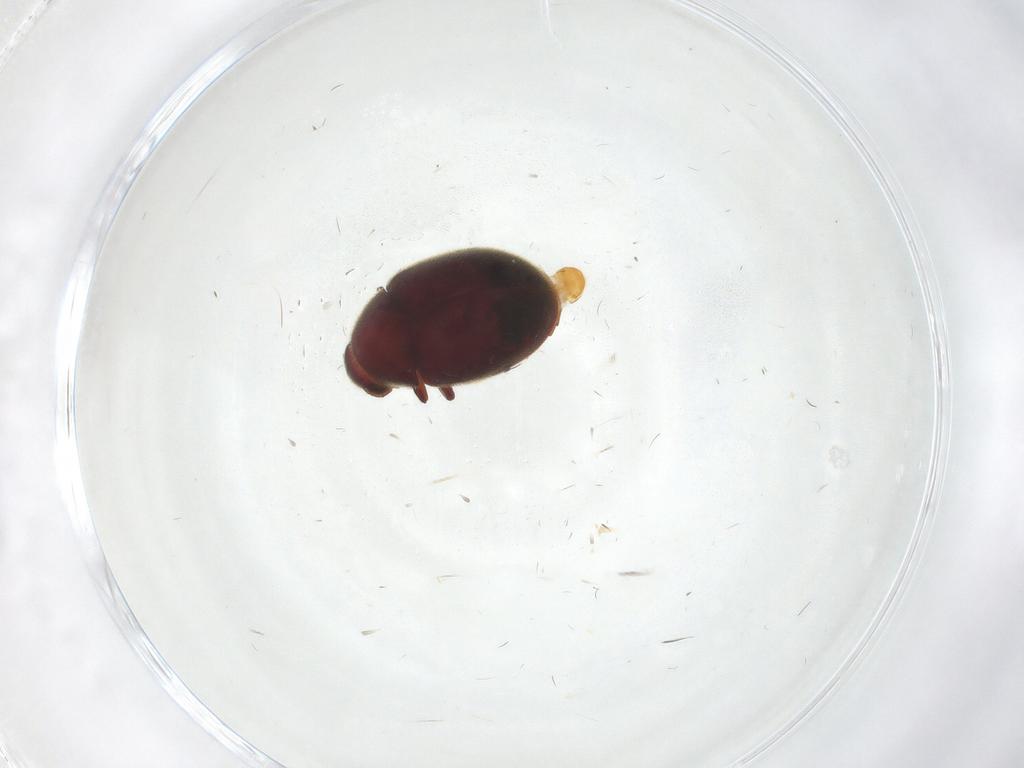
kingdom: Animalia
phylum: Arthropoda
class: Insecta
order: Coleoptera
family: Ptinidae
